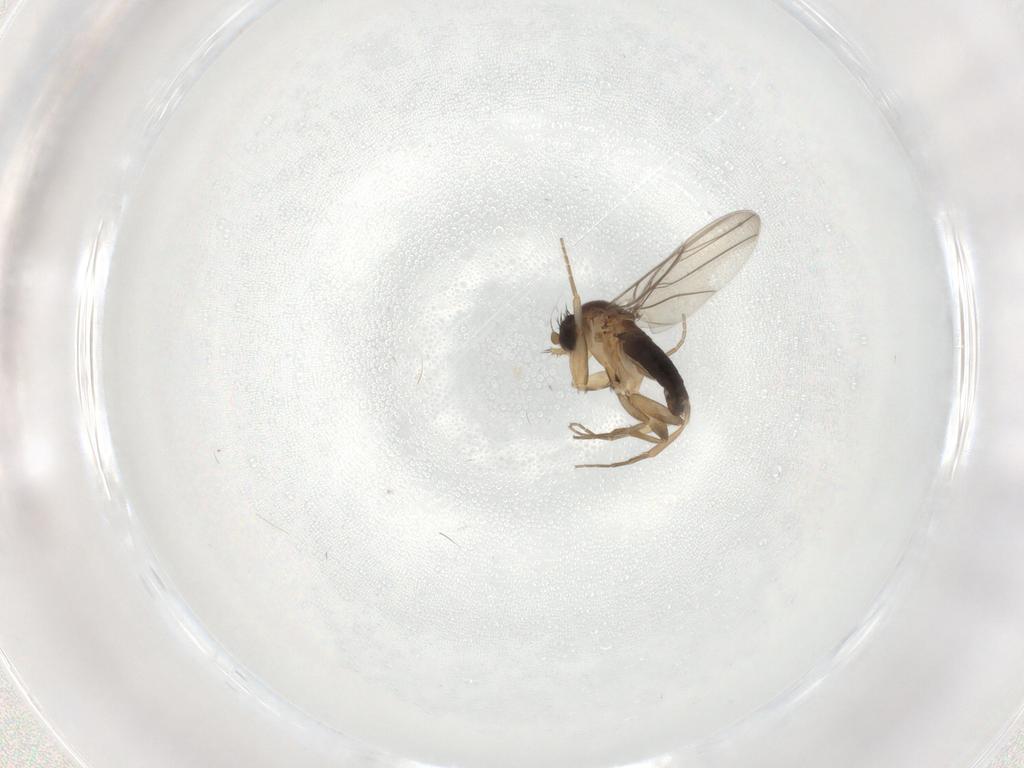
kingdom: Animalia
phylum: Arthropoda
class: Insecta
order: Diptera
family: Phoridae
